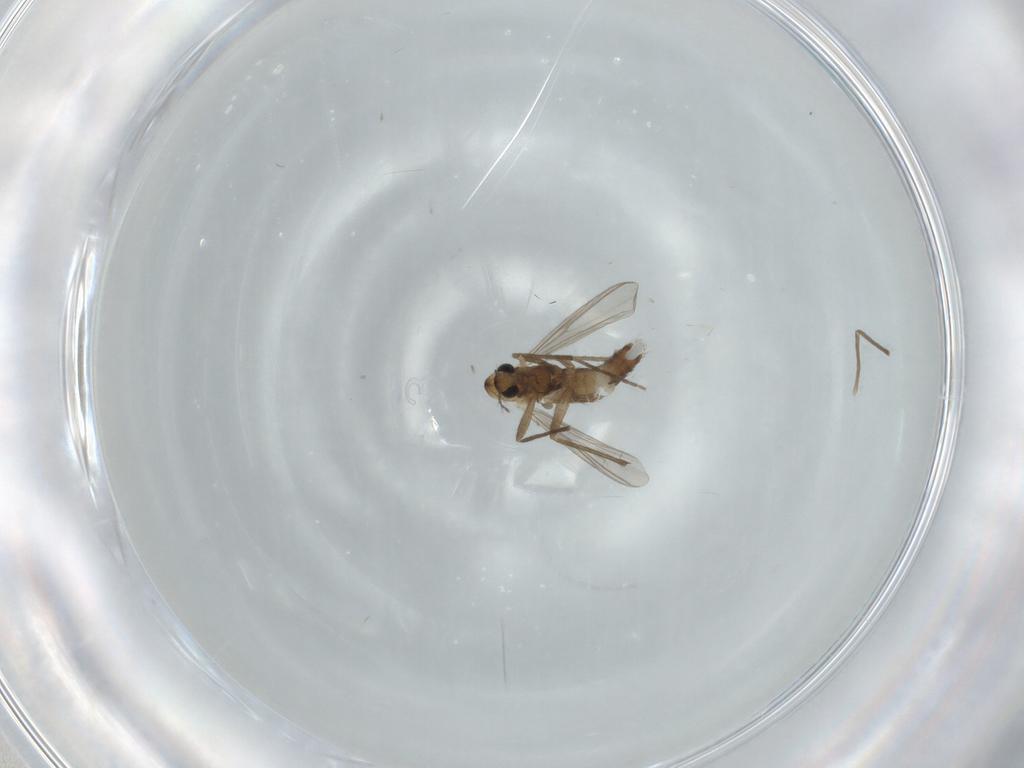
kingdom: Animalia
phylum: Arthropoda
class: Insecta
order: Diptera
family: Chironomidae
